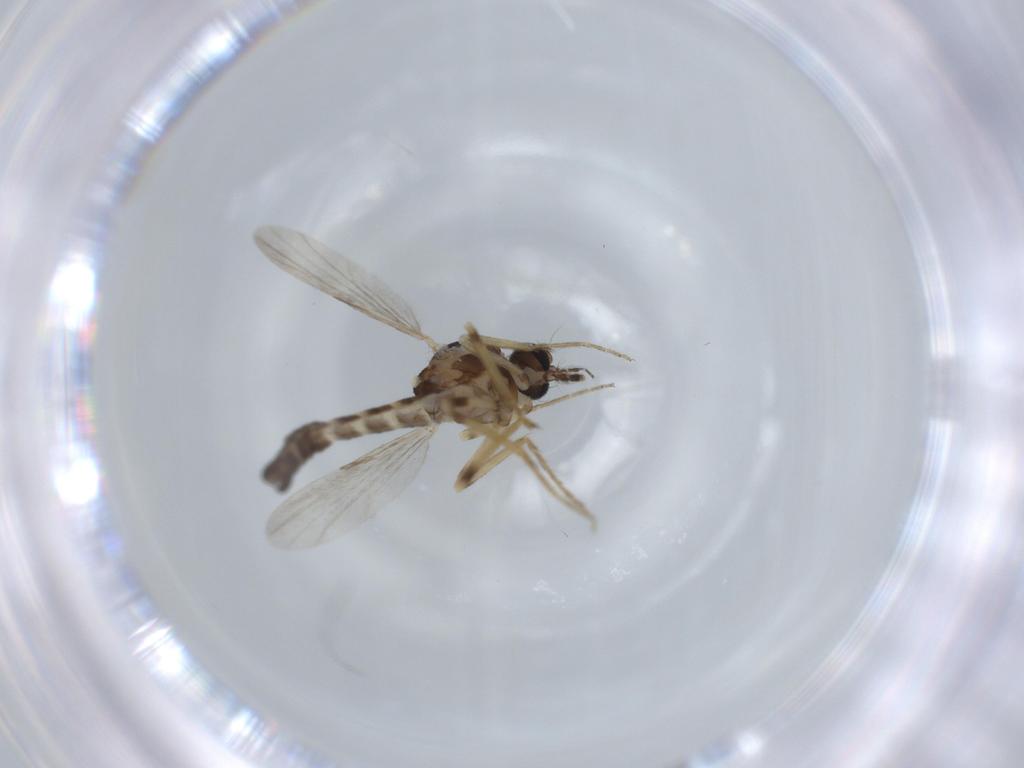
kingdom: Animalia
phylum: Arthropoda
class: Insecta
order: Diptera
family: Ceratopogonidae
